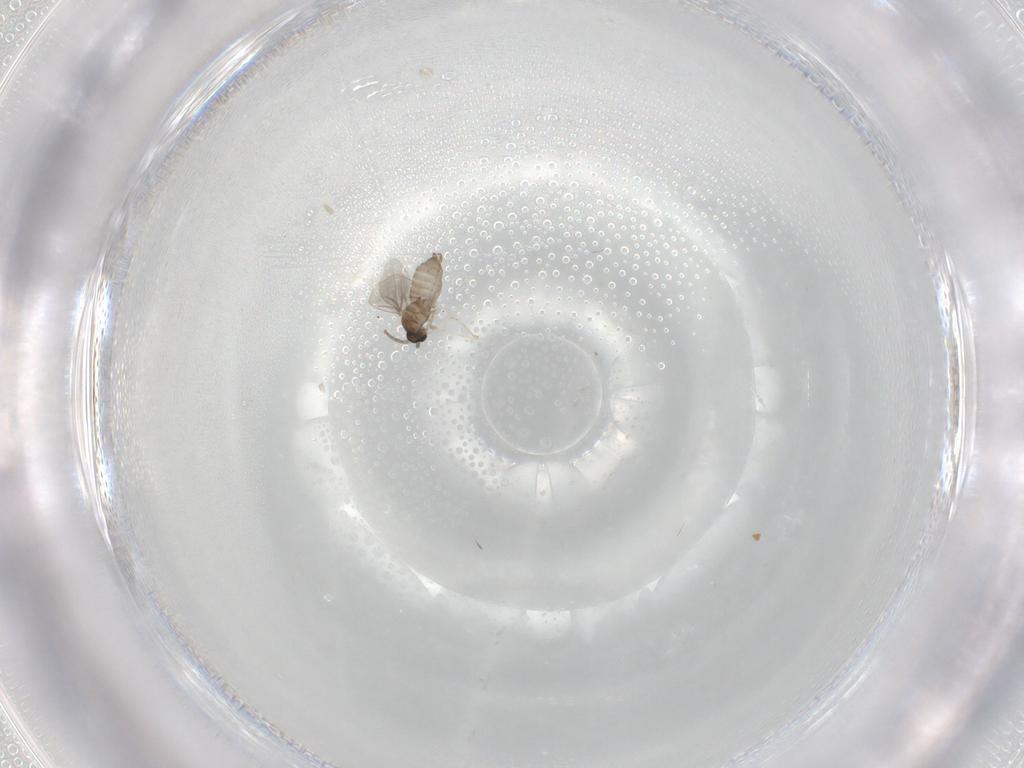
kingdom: Animalia
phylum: Arthropoda
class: Insecta
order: Diptera
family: Cecidomyiidae
